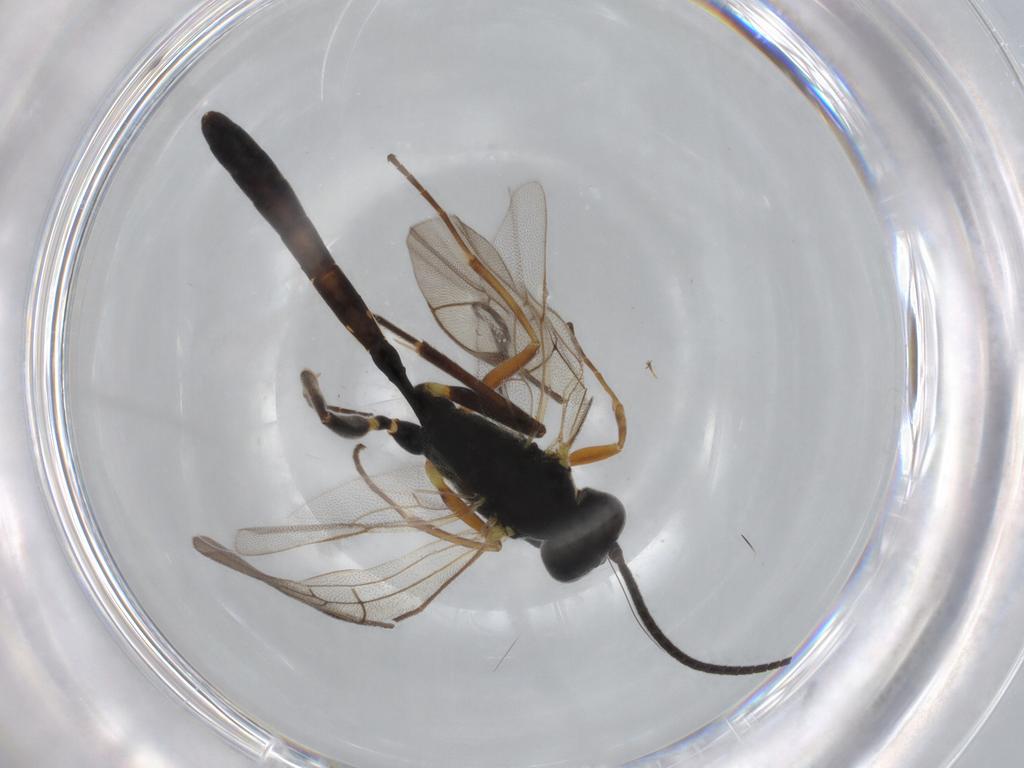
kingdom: Animalia
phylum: Arthropoda
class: Insecta
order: Hymenoptera
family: Ichneumonidae
